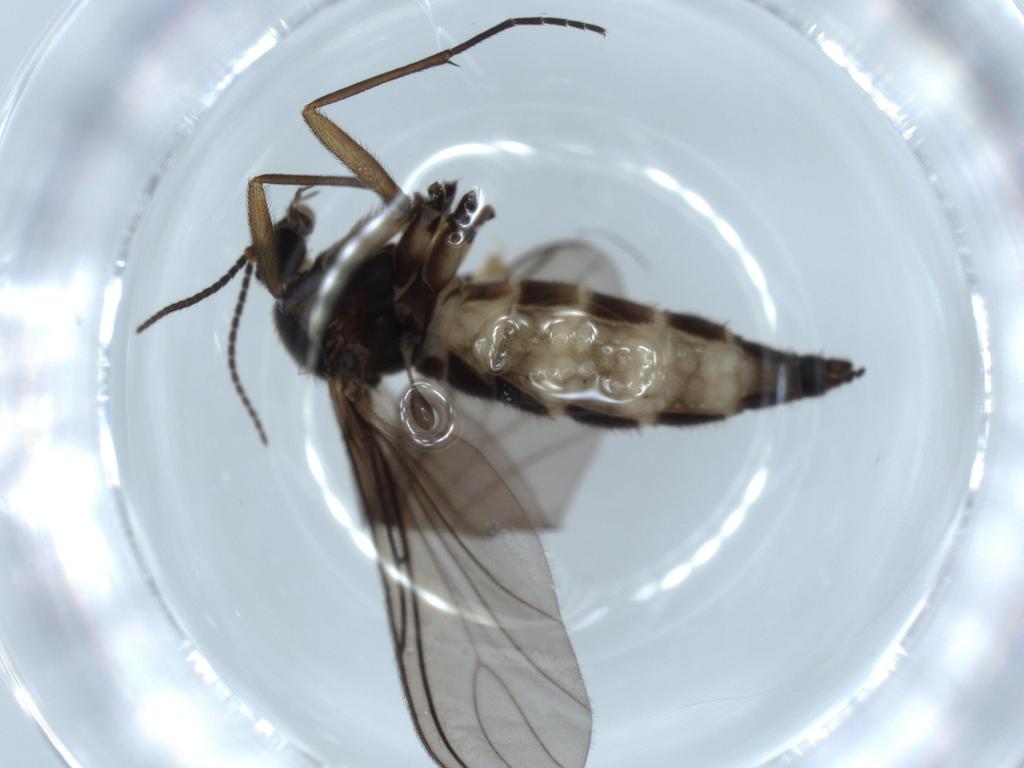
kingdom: Animalia
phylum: Arthropoda
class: Insecta
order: Diptera
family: Sciaridae
